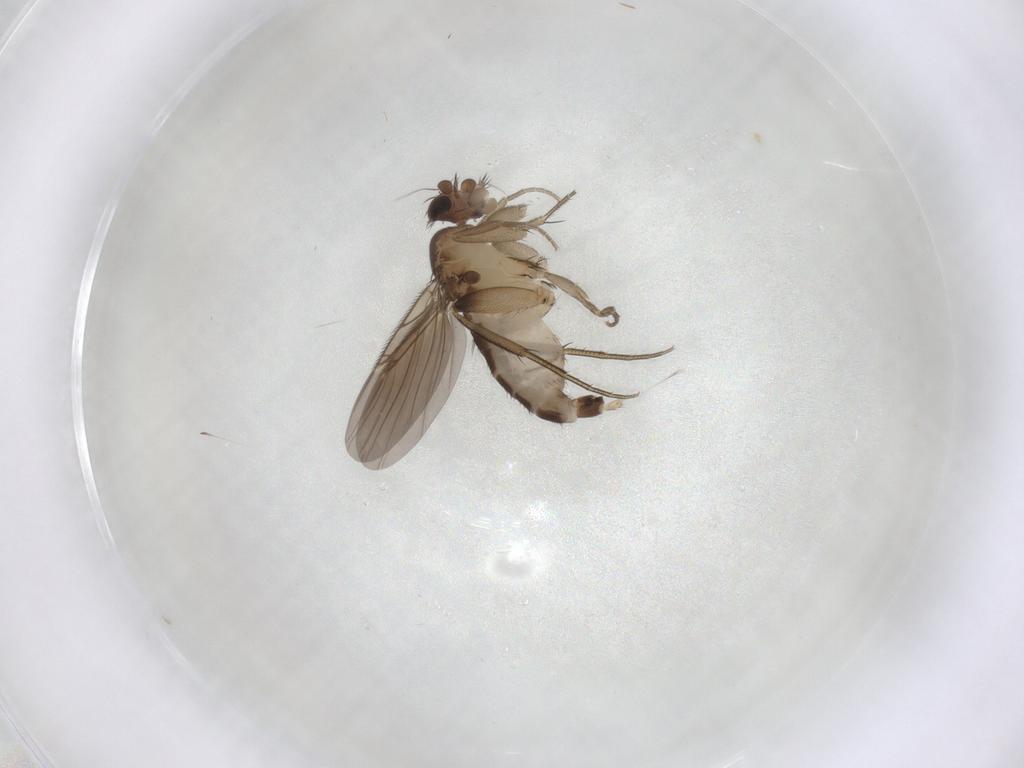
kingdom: Animalia
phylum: Arthropoda
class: Insecta
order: Diptera
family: Phoridae
